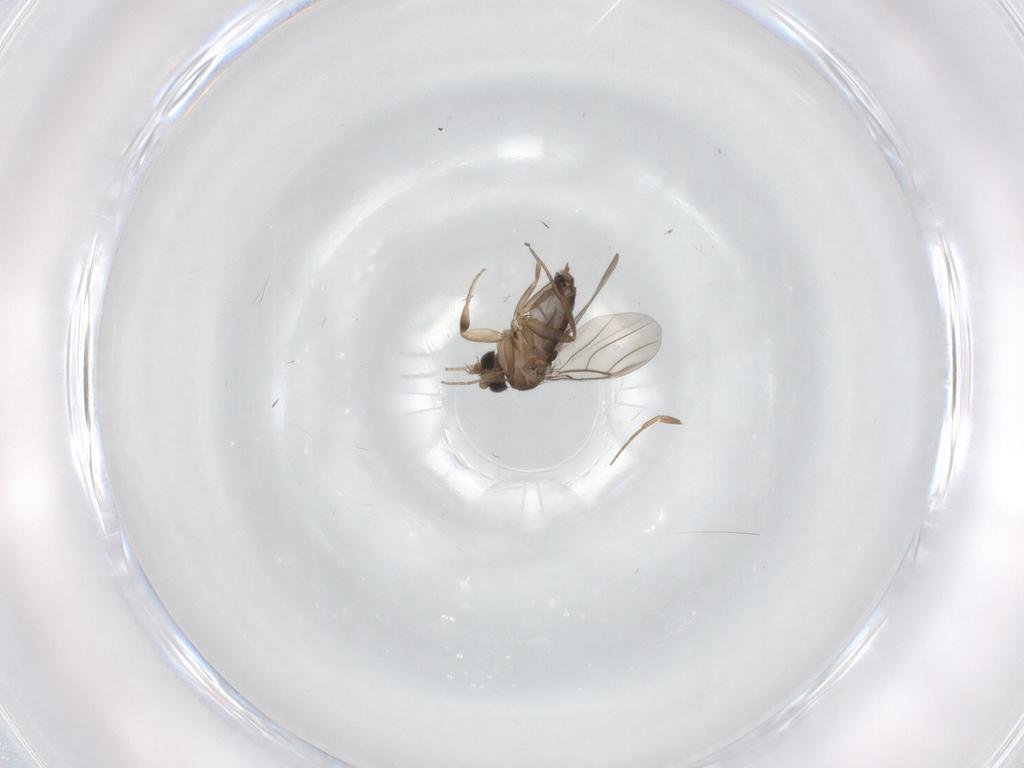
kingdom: Animalia
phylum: Arthropoda
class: Insecta
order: Diptera
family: Phoridae
